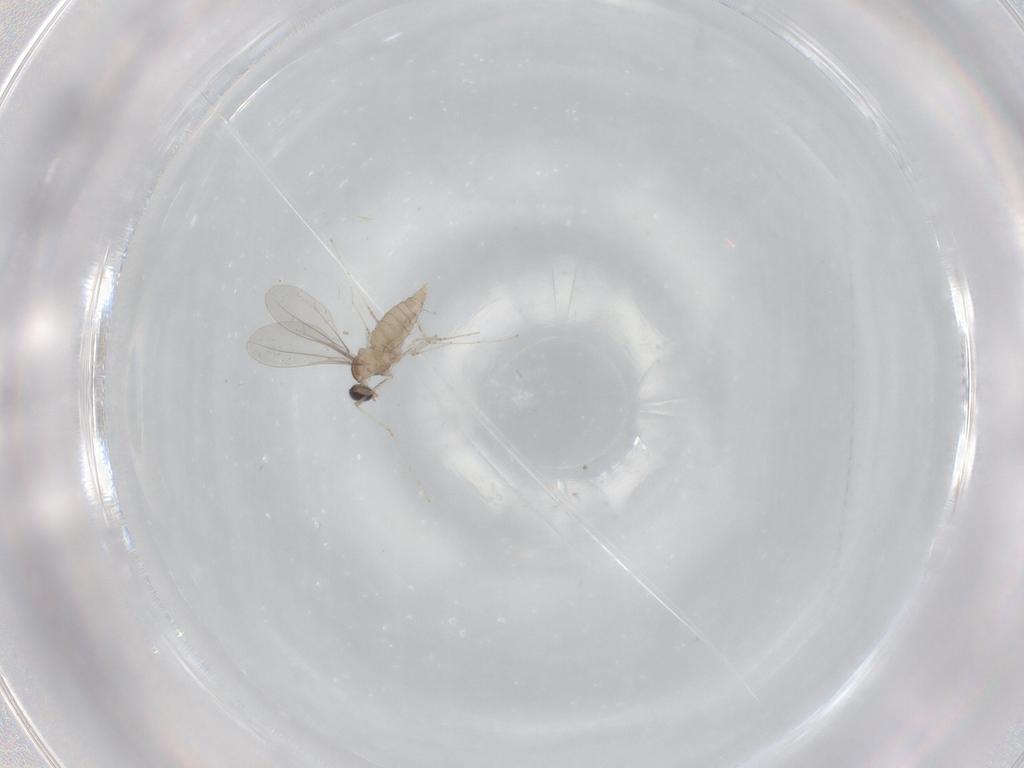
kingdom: Animalia
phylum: Arthropoda
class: Insecta
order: Diptera
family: Cecidomyiidae
